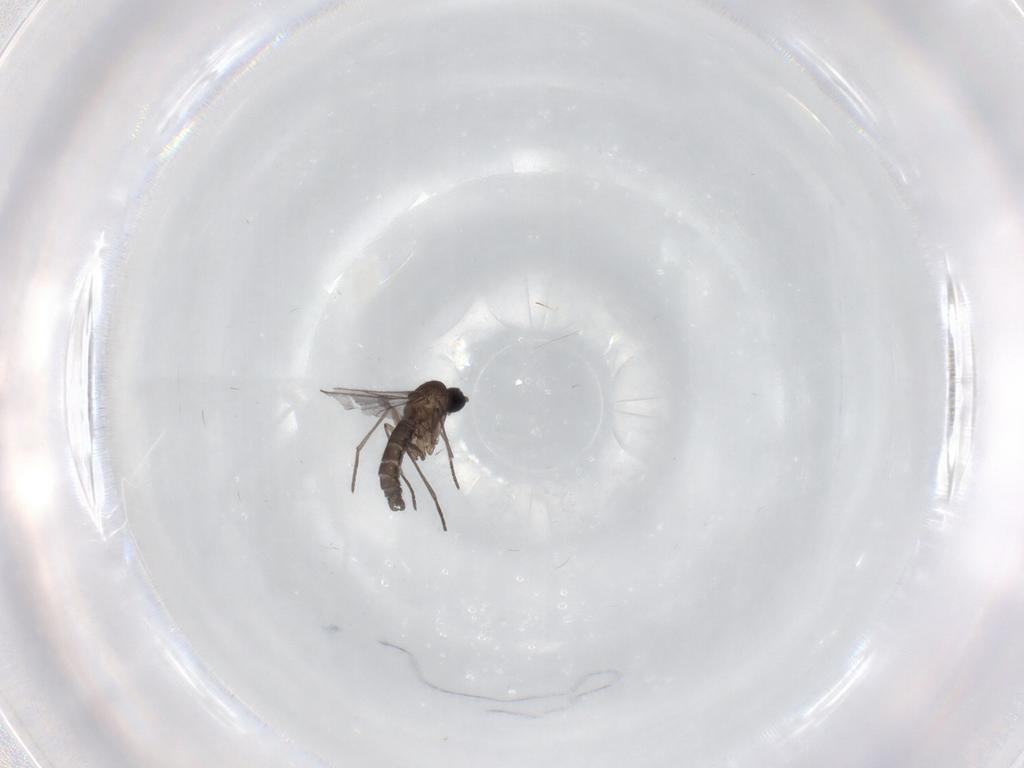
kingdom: Animalia
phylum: Arthropoda
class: Insecta
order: Diptera
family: Sciaridae
